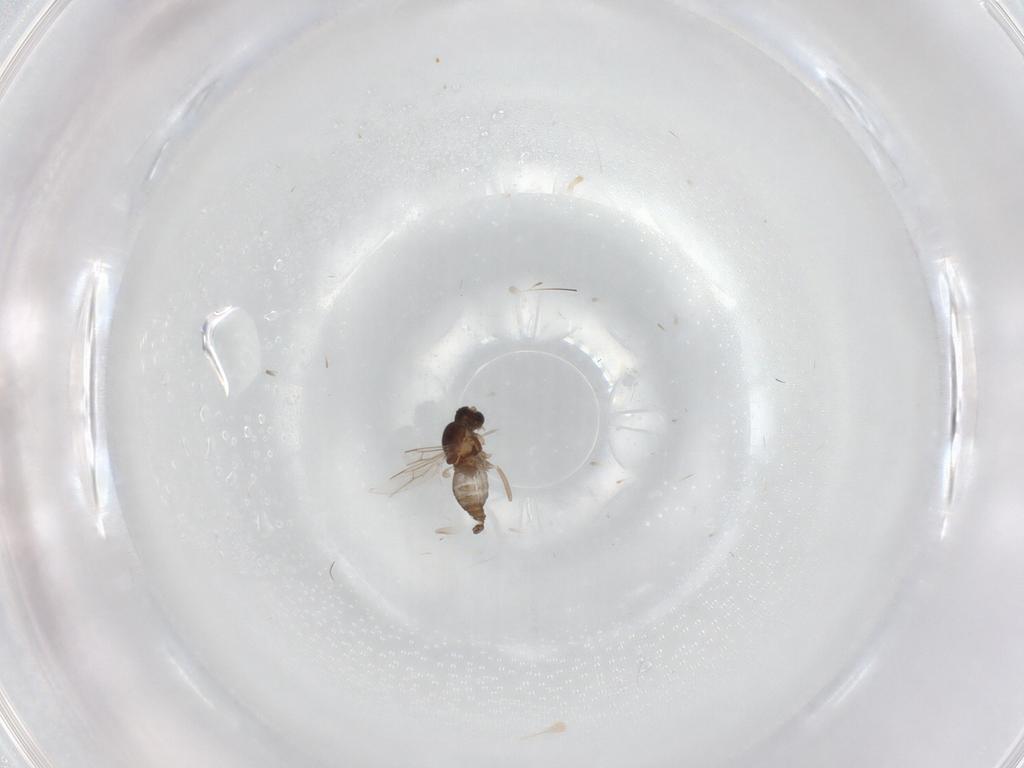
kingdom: Animalia
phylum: Arthropoda
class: Insecta
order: Diptera
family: Cecidomyiidae
